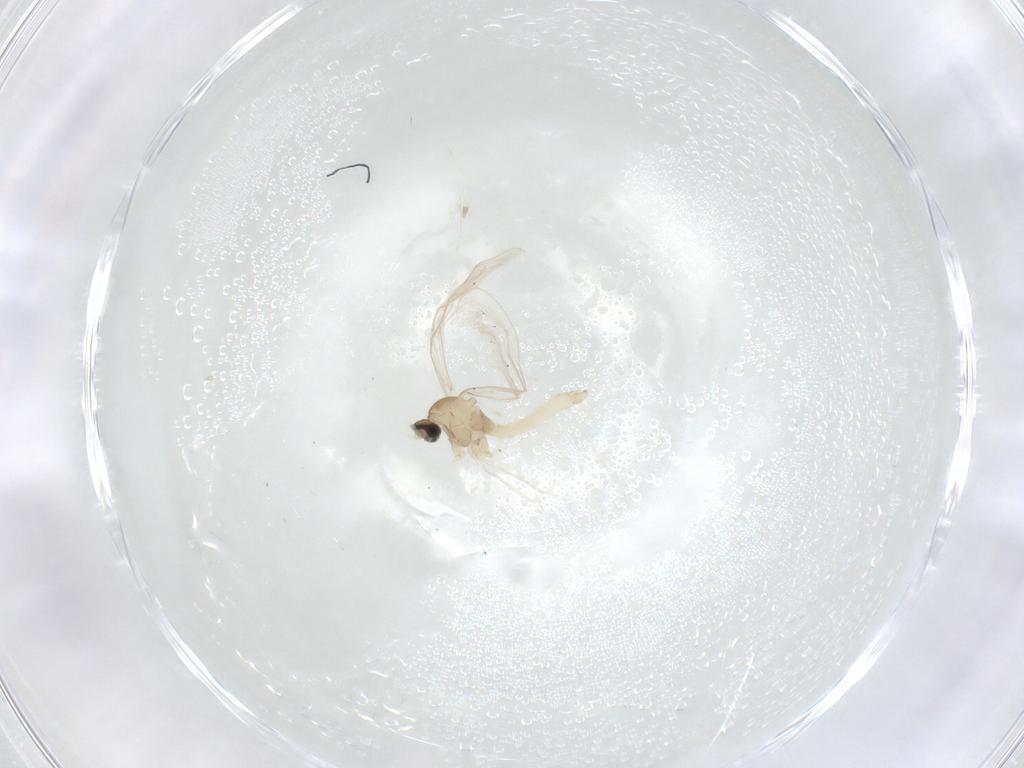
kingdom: Animalia
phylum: Arthropoda
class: Insecta
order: Diptera
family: Cecidomyiidae
